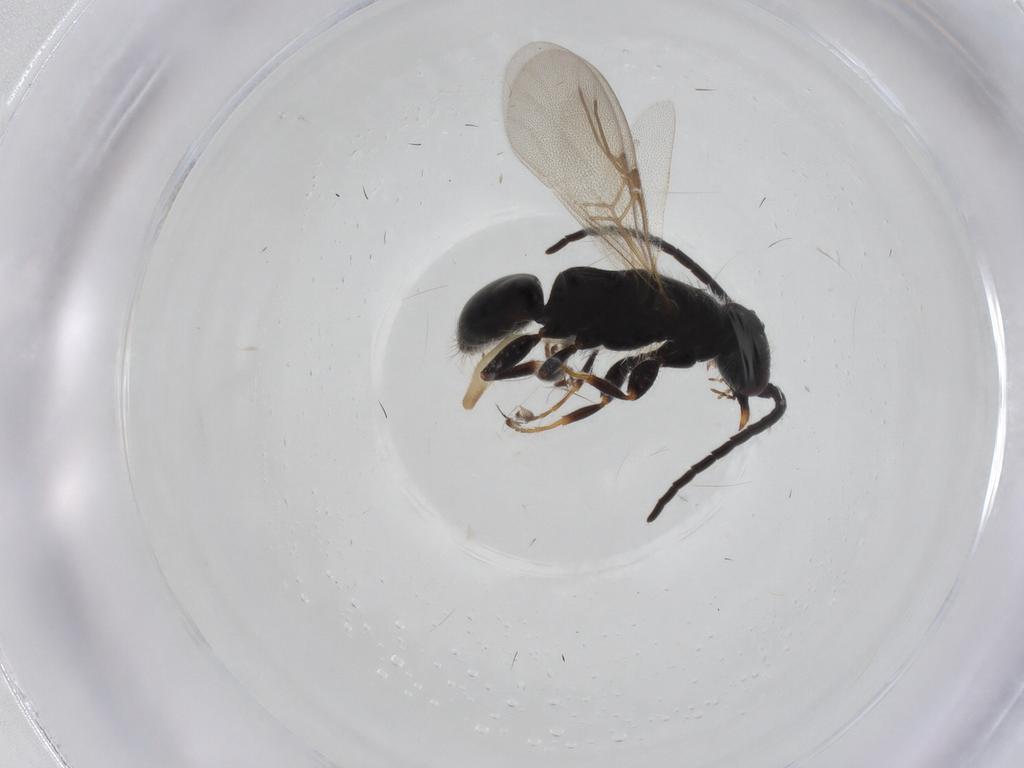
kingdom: Animalia
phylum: Arthropoda
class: Insecta
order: Hymenoptera
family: Bethylidae
